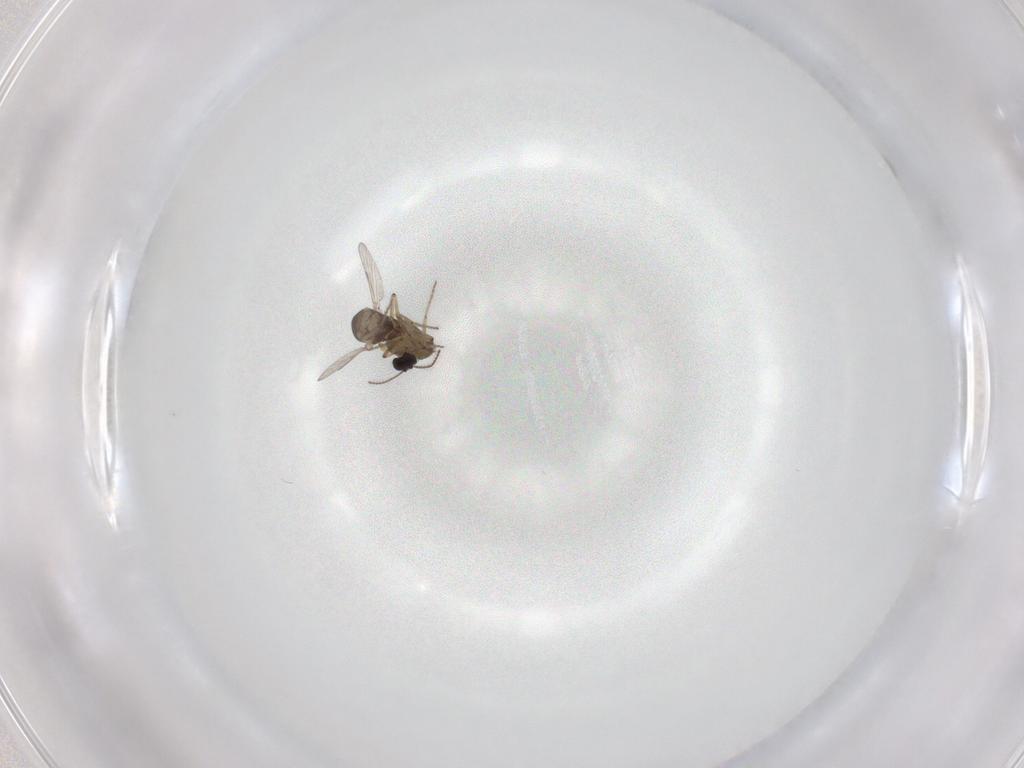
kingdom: Animalia
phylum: Arthropoda
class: Insecta
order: Diptera
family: Ceratopogonidae
